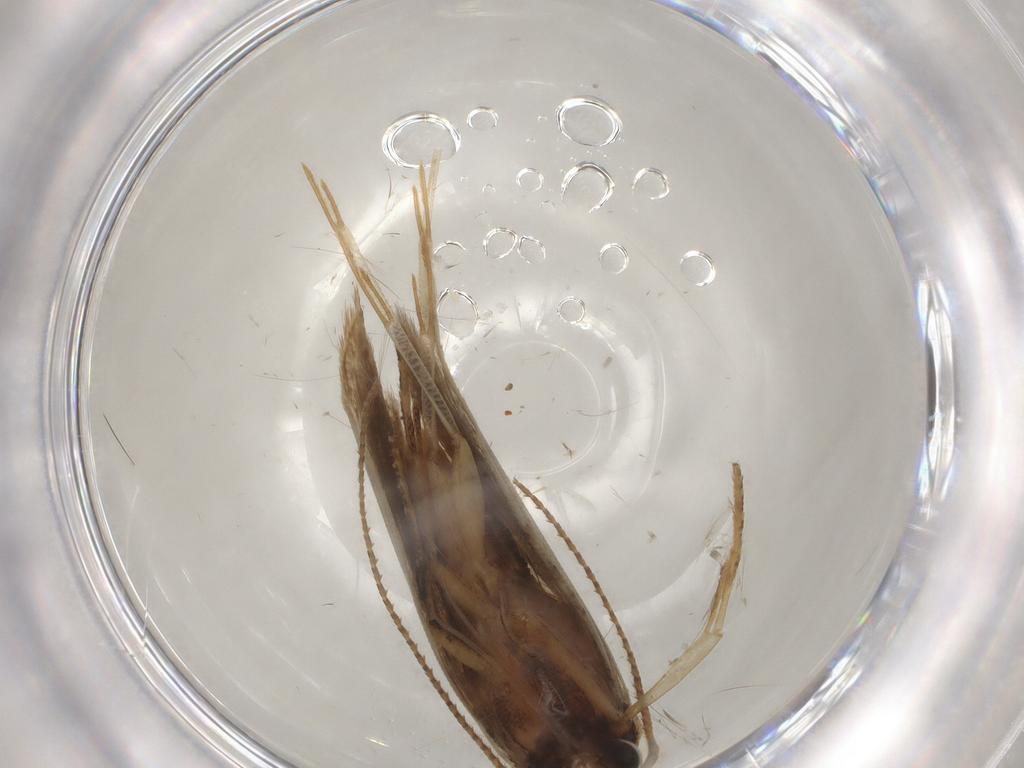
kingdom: Animalia
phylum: Arthropoda
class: Insecta
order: Lepidoptera
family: Gelechiidae
